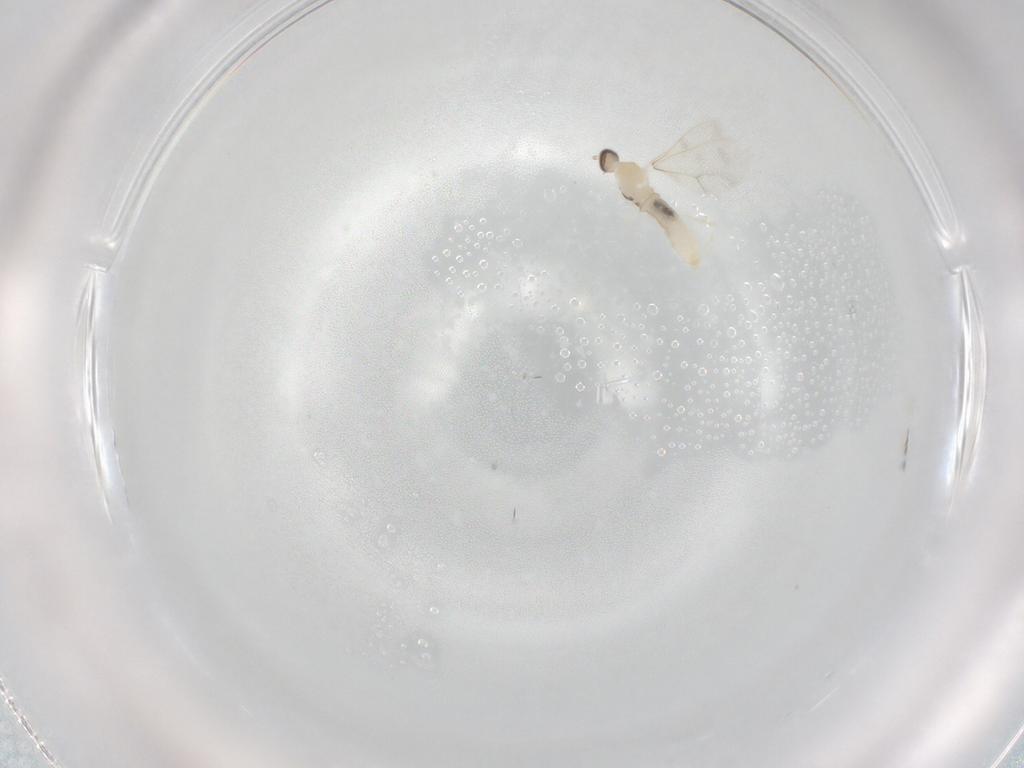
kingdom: Animalia
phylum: Arthropoda
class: Insecta
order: Diptera
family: Cecidomyiidae
